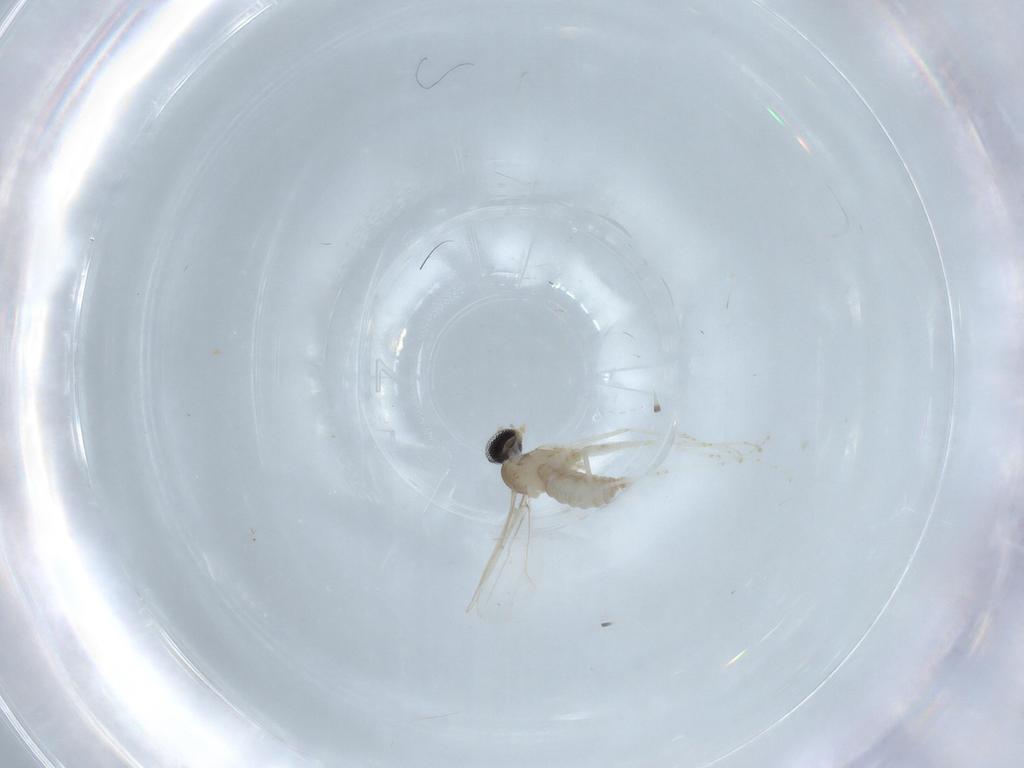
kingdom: Animalia
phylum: Arthropoda
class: Insecta
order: Diptera
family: Cecidomyiidae
